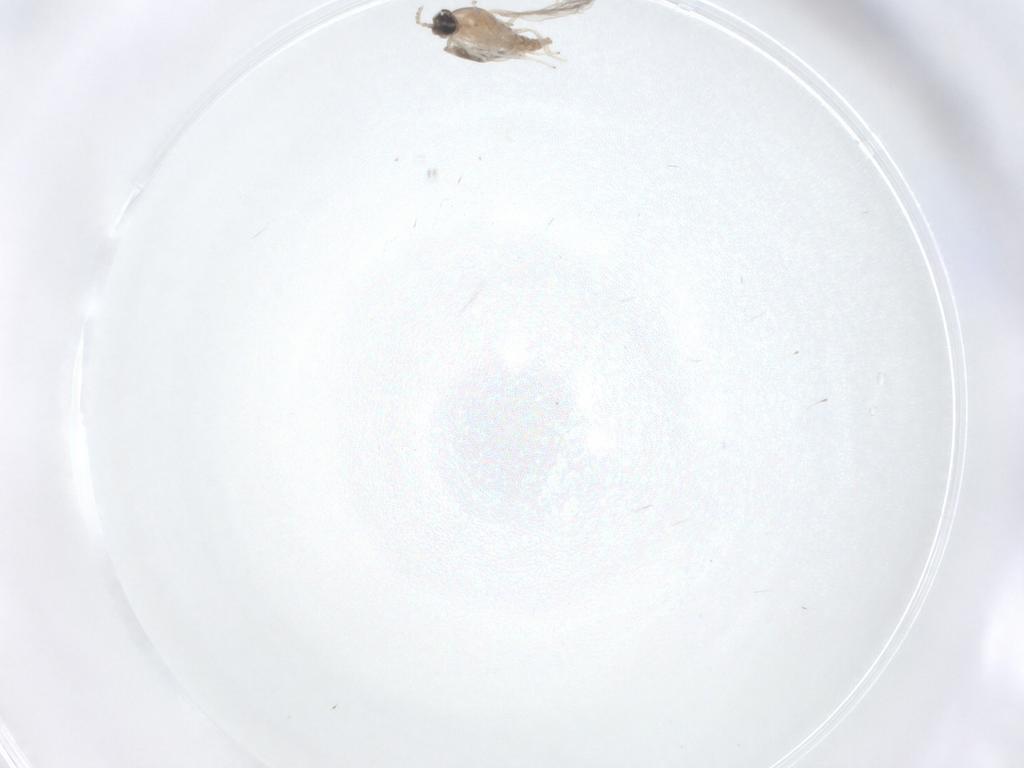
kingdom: Animalia
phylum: Arthropoda
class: Insecta
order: Diptera
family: Cecidomyiidae
